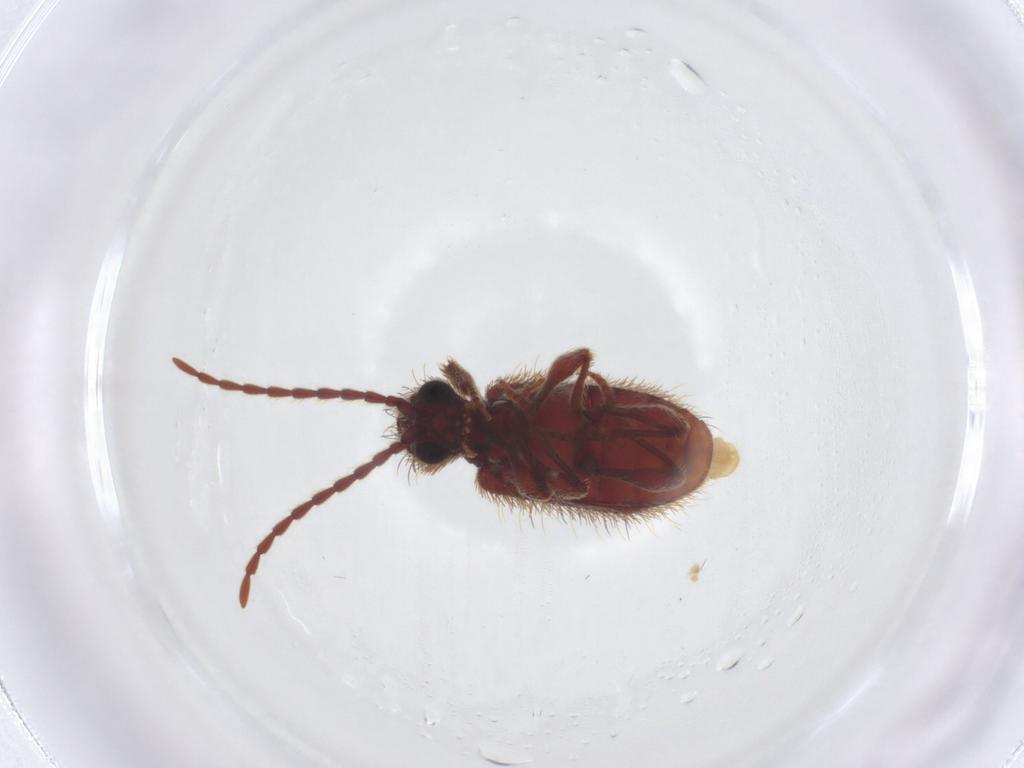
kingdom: Animalia
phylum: Arthropoda
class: Insecta
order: Coleoptera
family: Ptinidae
